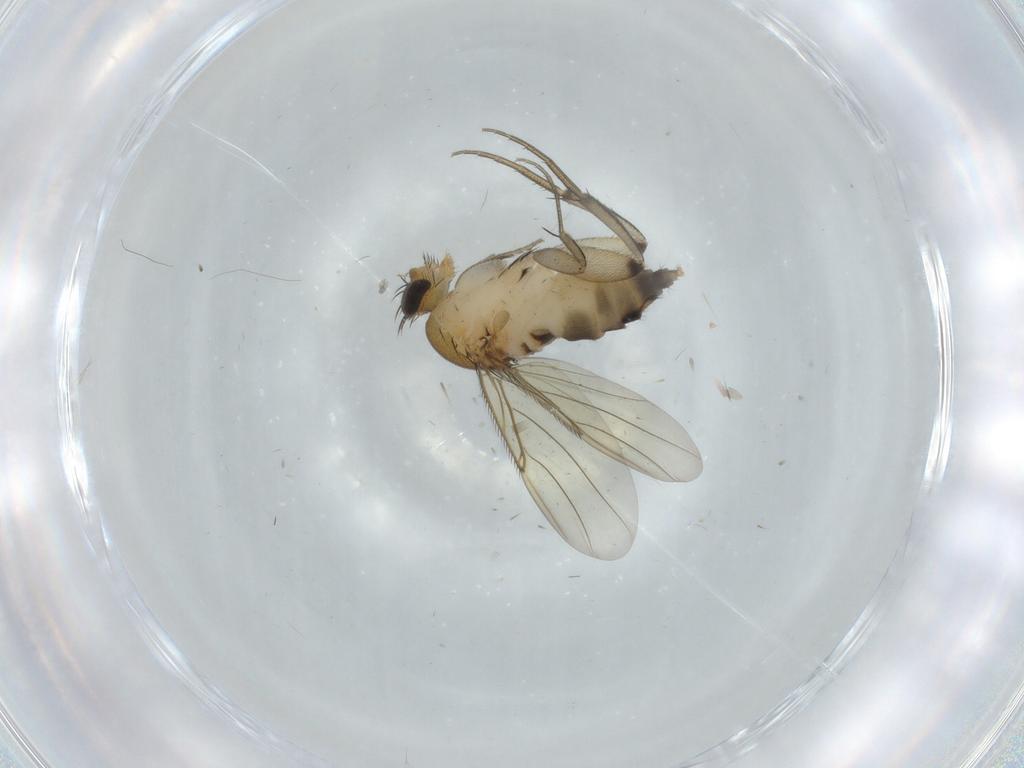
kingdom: Animalia
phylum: Arthropoda
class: Insecta
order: Diptera
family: Phoridae
